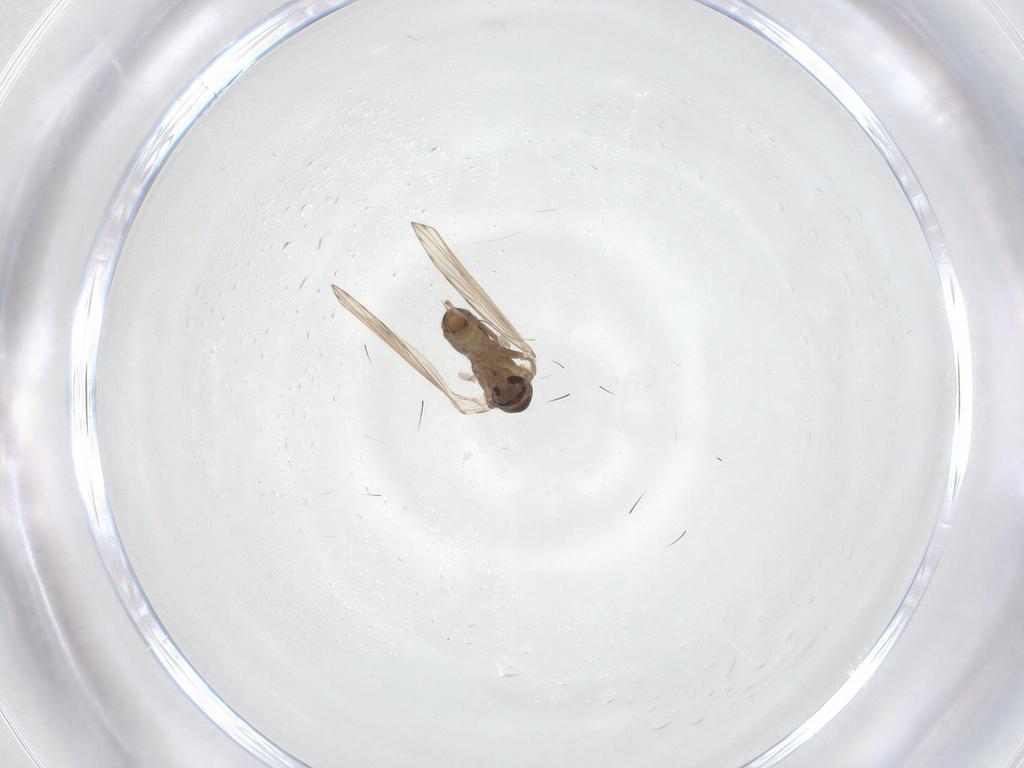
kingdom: Animalia
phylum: Arthropoda
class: Insecta
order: Diptera
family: Psychodidae
